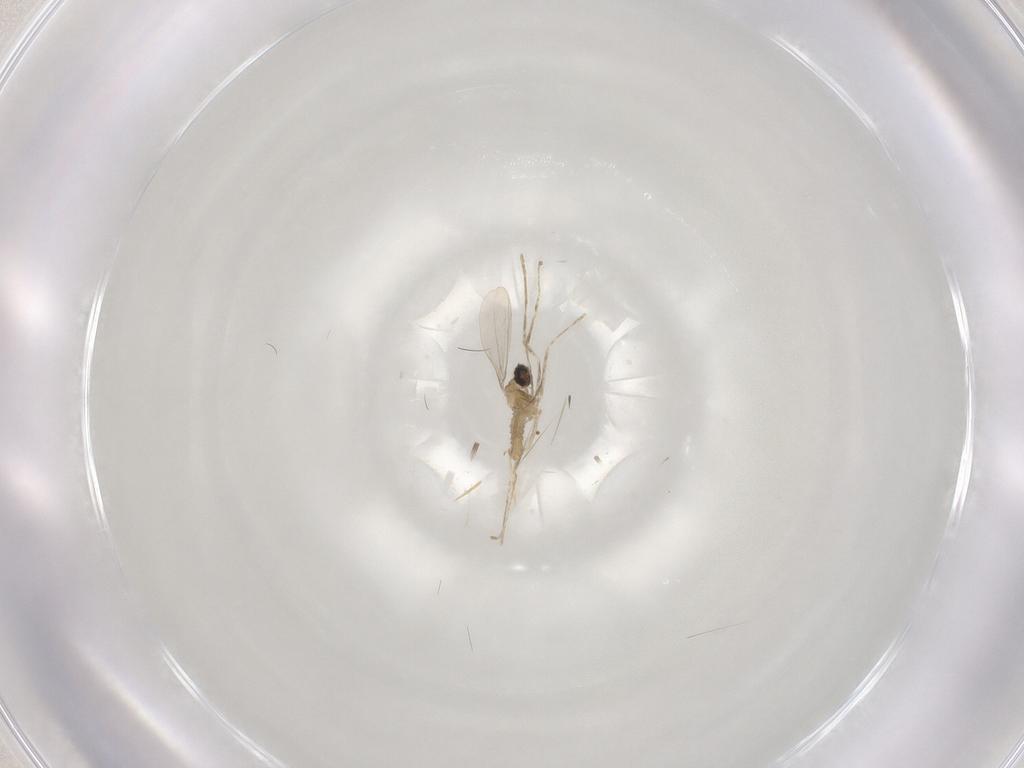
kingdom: Animalia
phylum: Arthropoda
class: Insecta
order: Diptera
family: Cecidomyiidae
